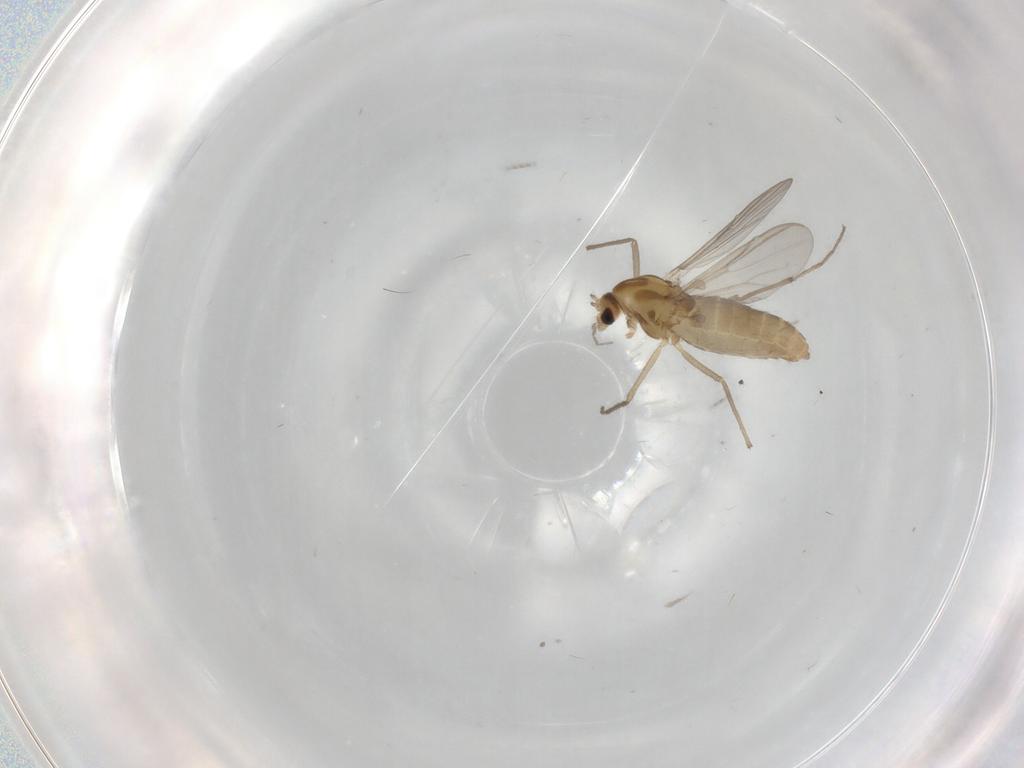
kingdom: Animalia
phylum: Arthropoda
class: Insecta
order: Diptera
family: Chironomidae
